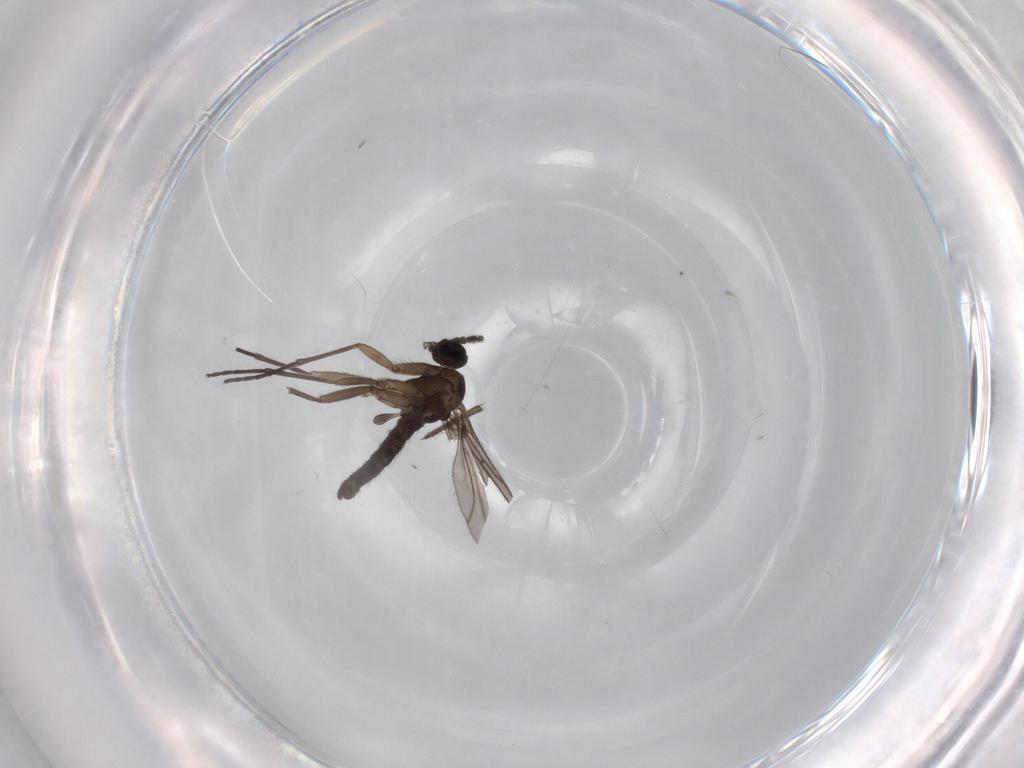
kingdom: Animalia
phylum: Arthropoda
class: Insecta
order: Diptera
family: Sciaridae
